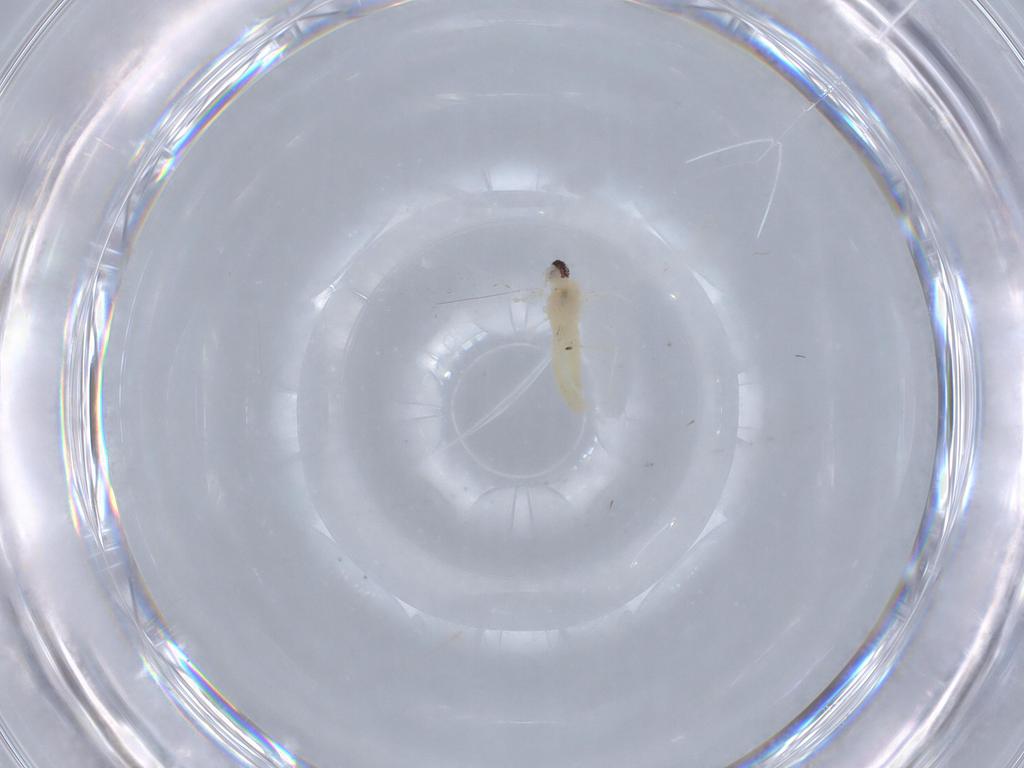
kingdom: Animalia
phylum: Arthropoda
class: Insecta
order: Diptera
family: Cecidomyiidae
